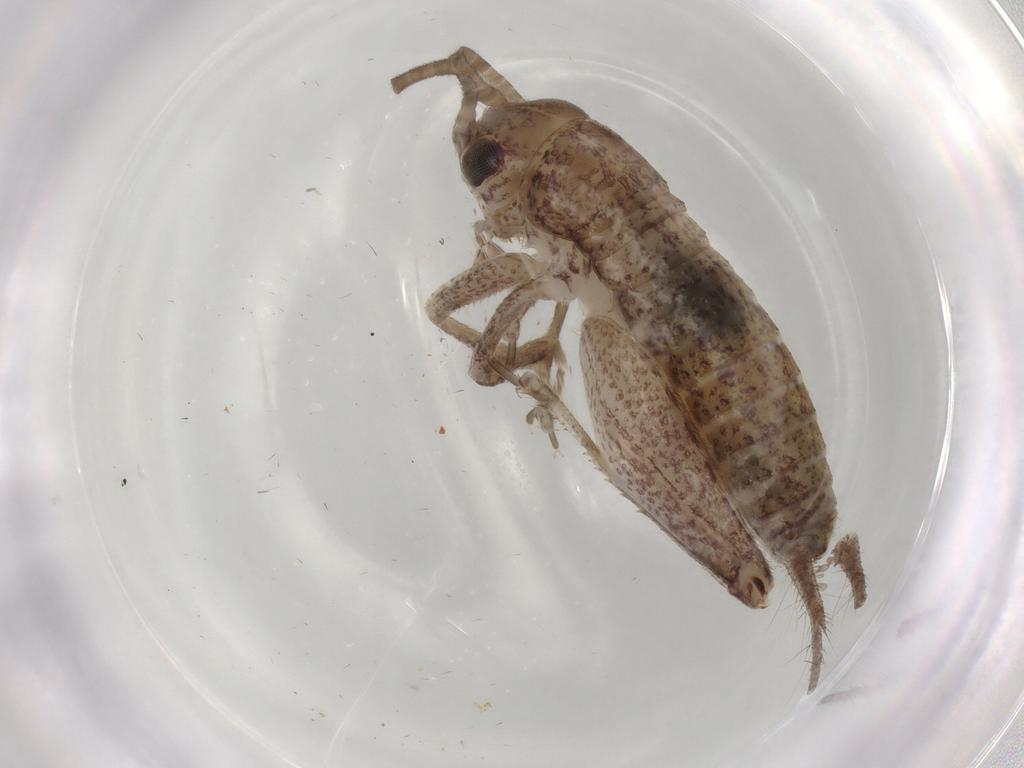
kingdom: Animalia
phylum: Arthropoda
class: Insecta
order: Orthoptera
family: Gryllidae
